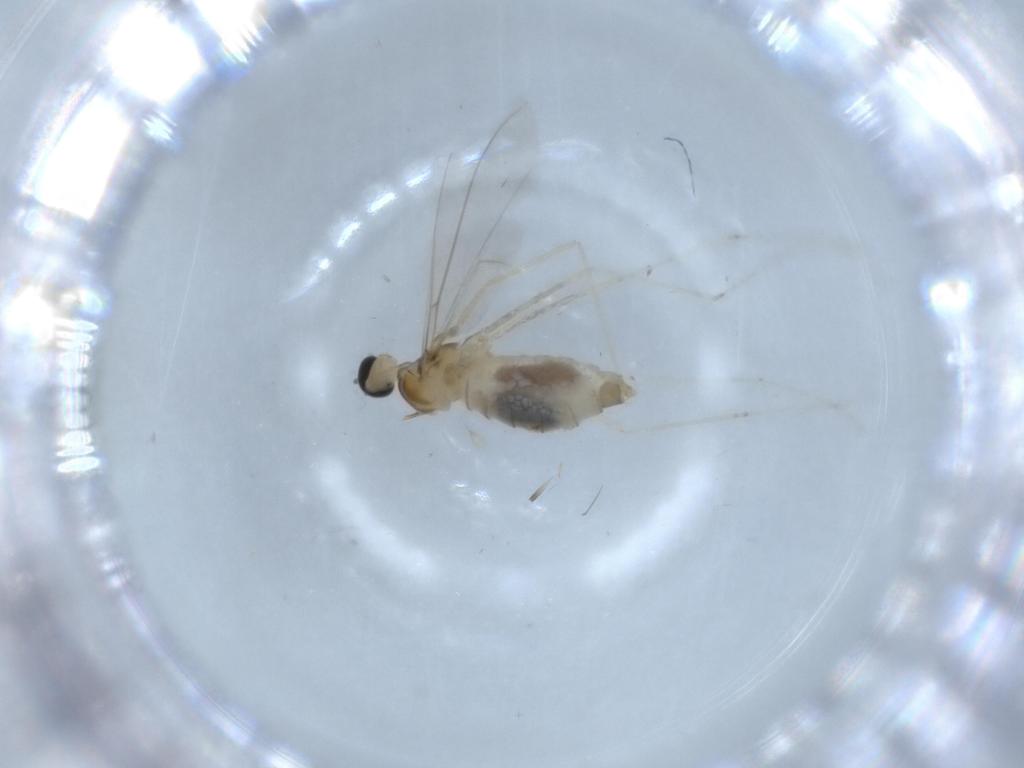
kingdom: Animalia
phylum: Arthropoda
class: Insecta
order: Diptera
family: Cecidomyiidae
